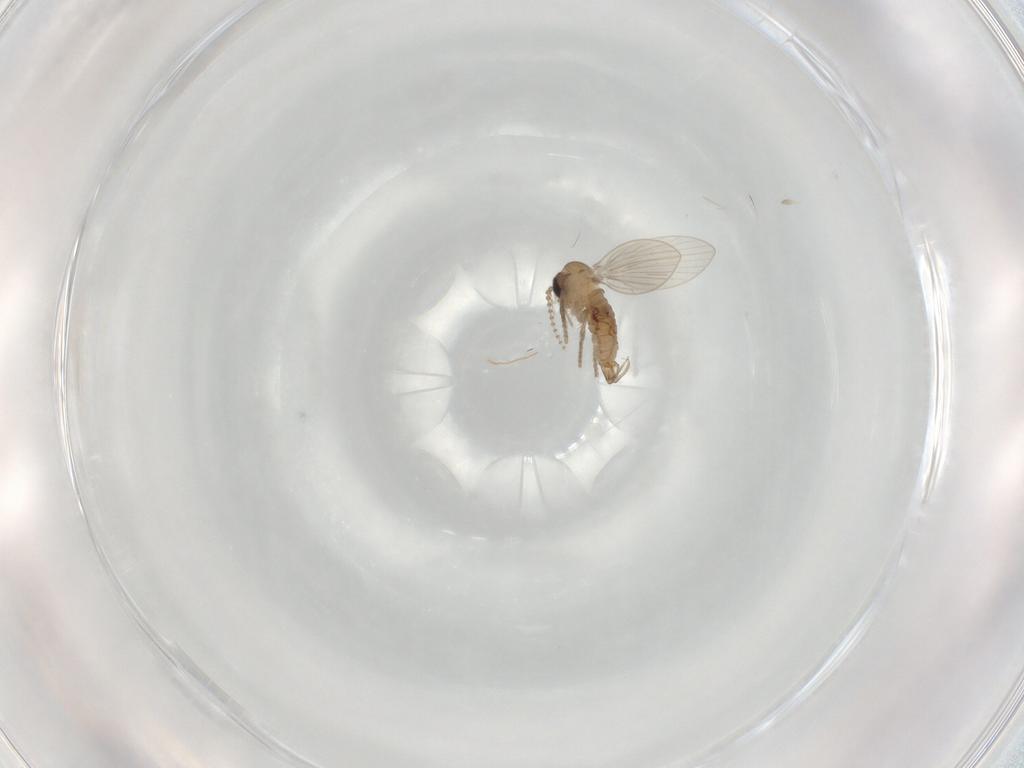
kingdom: Animalia
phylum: Arthropoda
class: Insecta
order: Diptera
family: Psychodidae
